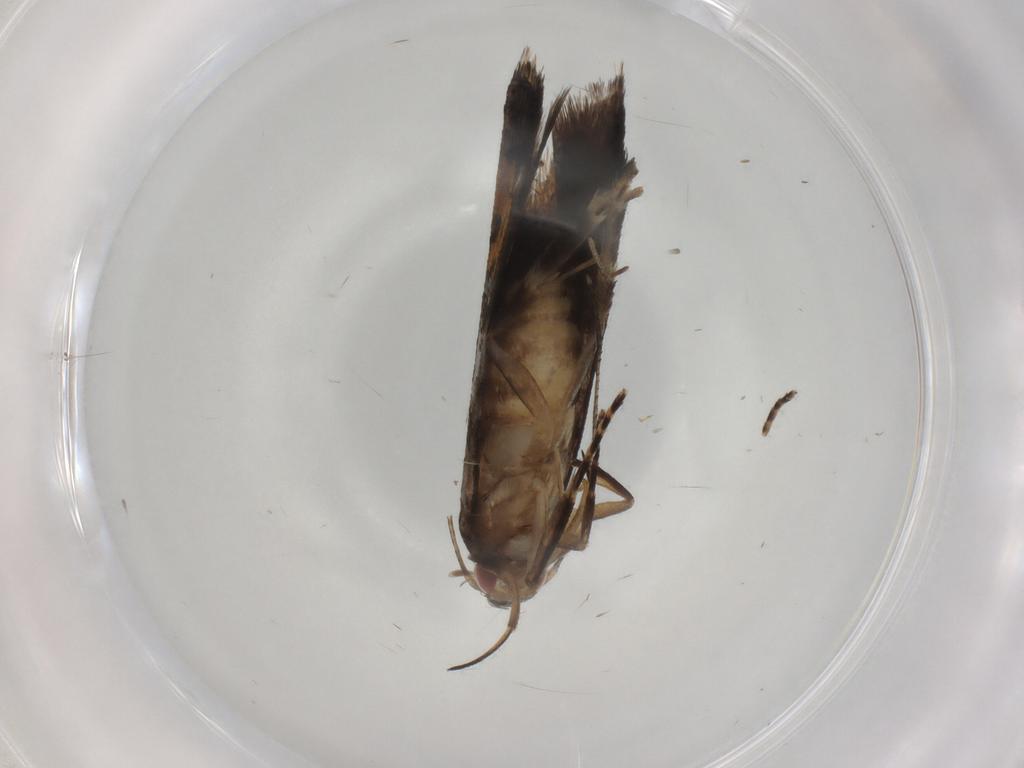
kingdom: Animalia
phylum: Arthropoda
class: Insecta
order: Lepidoptera
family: Gelechiidae
